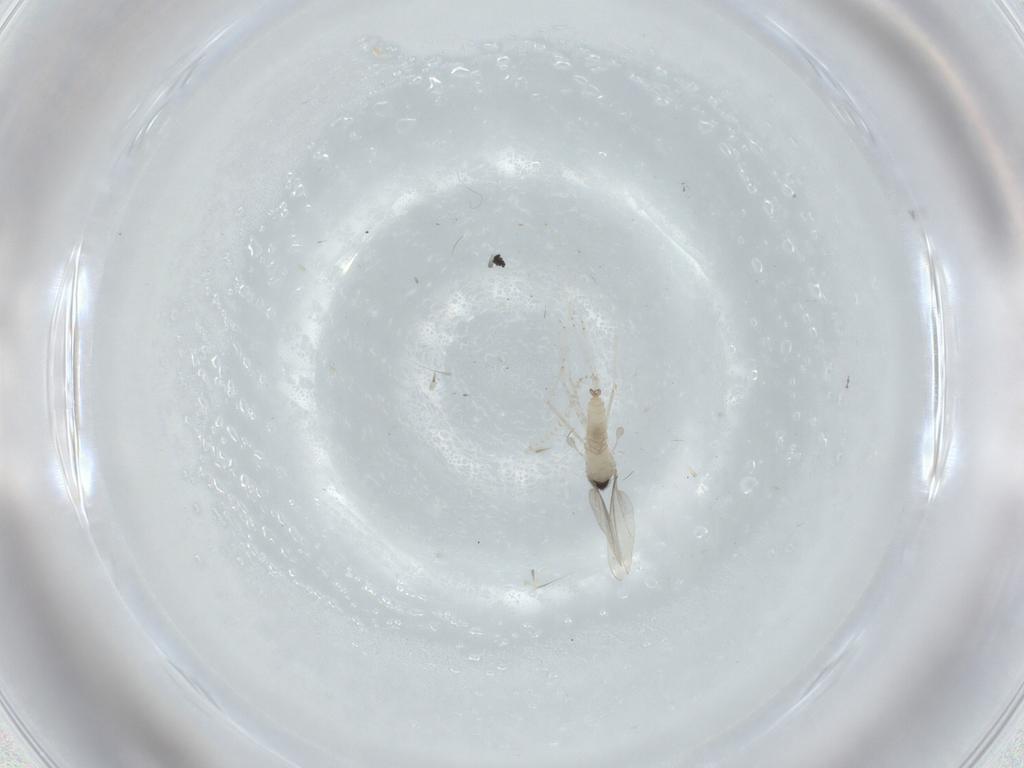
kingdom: Animalia
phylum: Arthropoda
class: Insecta
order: Diptera
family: Cecidomyiidae
